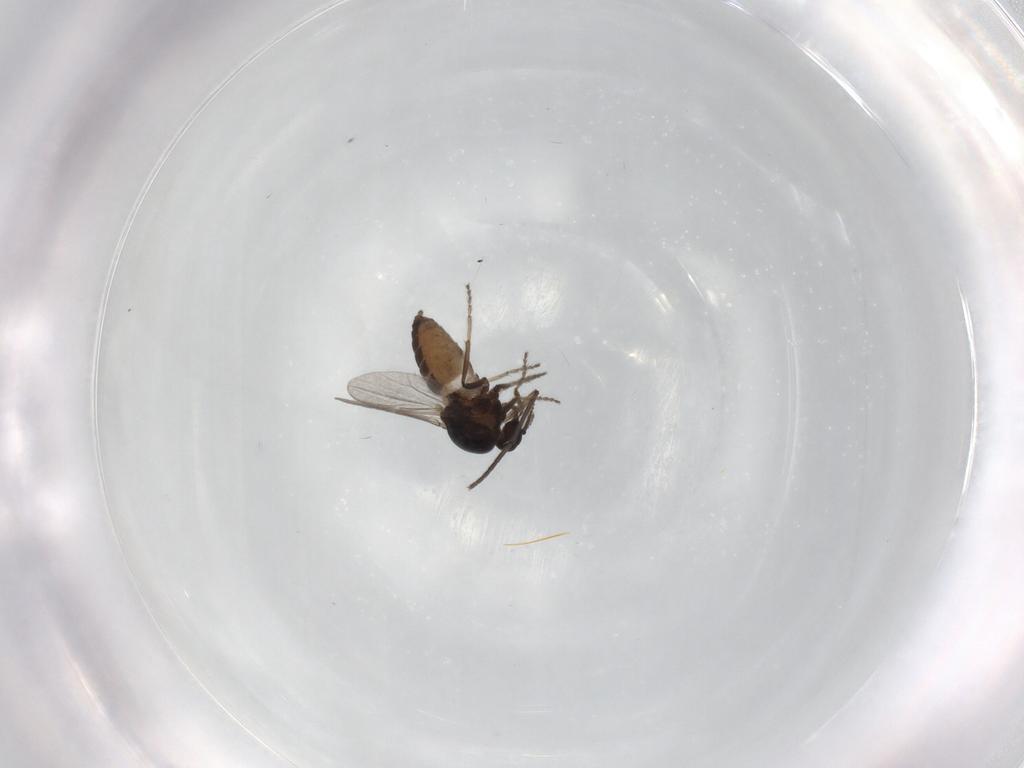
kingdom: Animalia
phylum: Arthropoda
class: Insecta
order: Diptera
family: Ceratopogonidae
